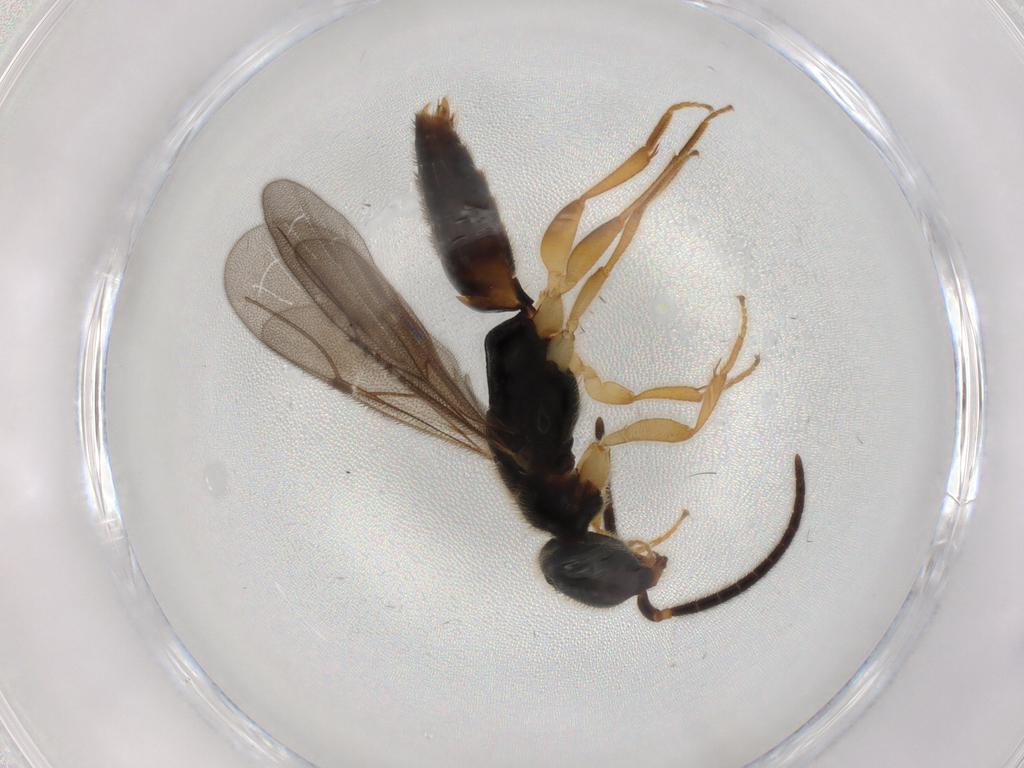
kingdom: Animalia
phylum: Arthropoda
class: Insecta
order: Hymenoptera
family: Bethylidae
